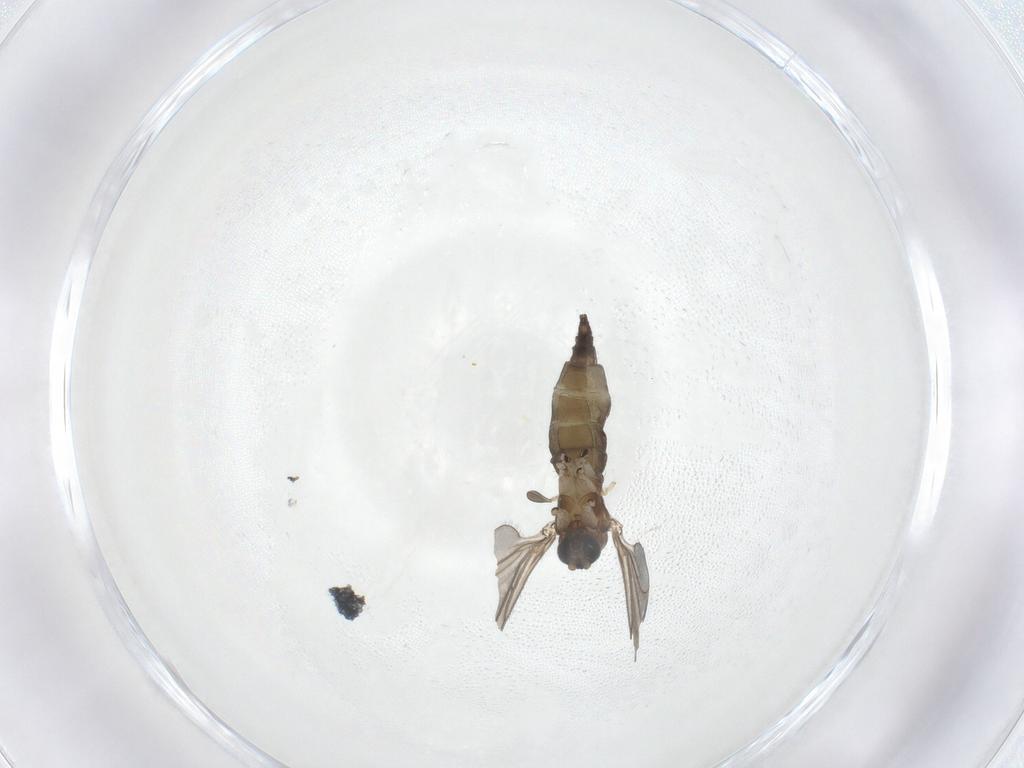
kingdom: Animalia
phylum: Arthropoda
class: Insecta
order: Diptera
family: Sciaridae
